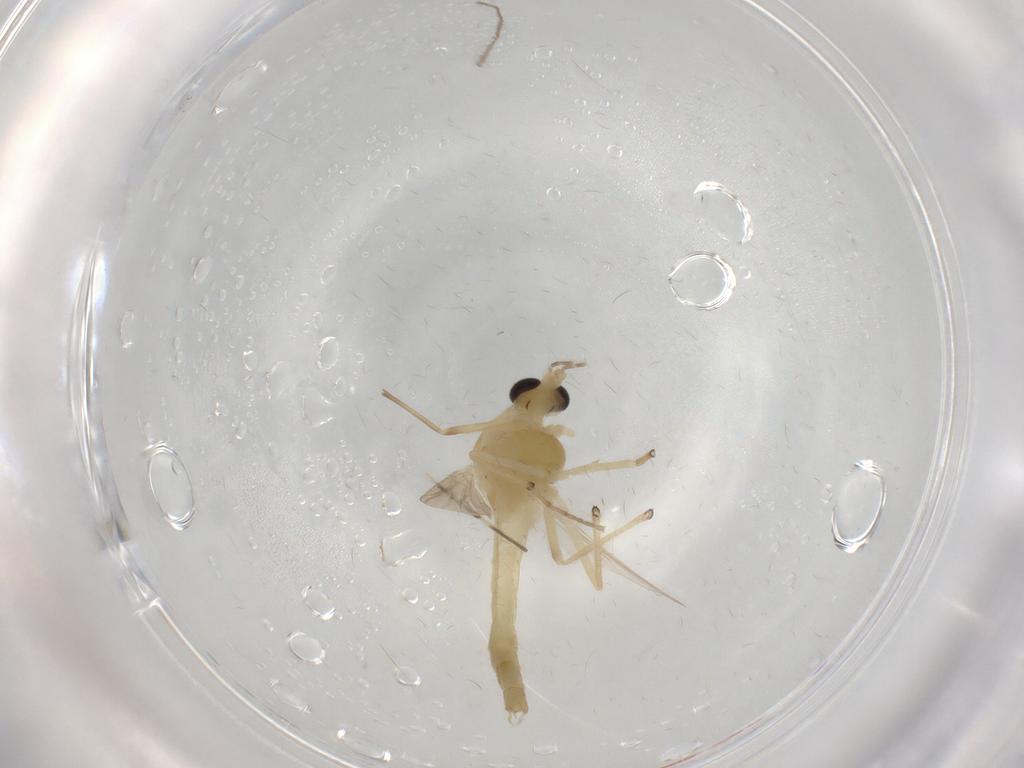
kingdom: Animalia
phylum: Arthropoda
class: Insecta
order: Diptera
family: Chironomidae
